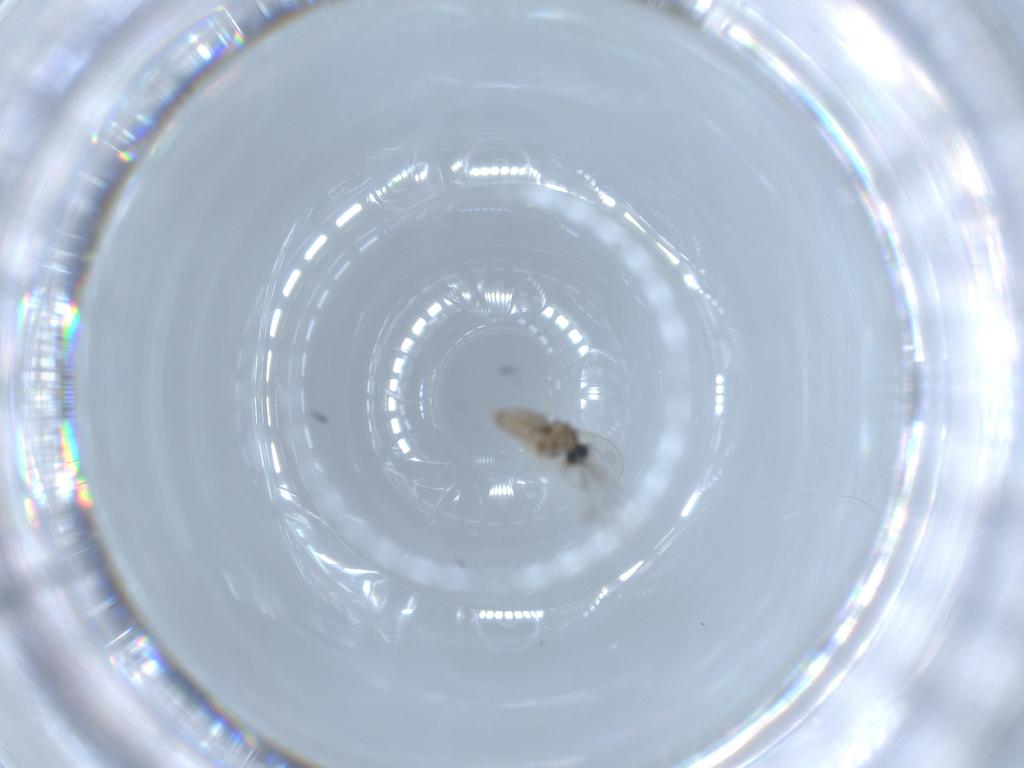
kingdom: Animalia
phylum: Arthropoda
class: Insecta
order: Diptera
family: Cecidomyiidae
